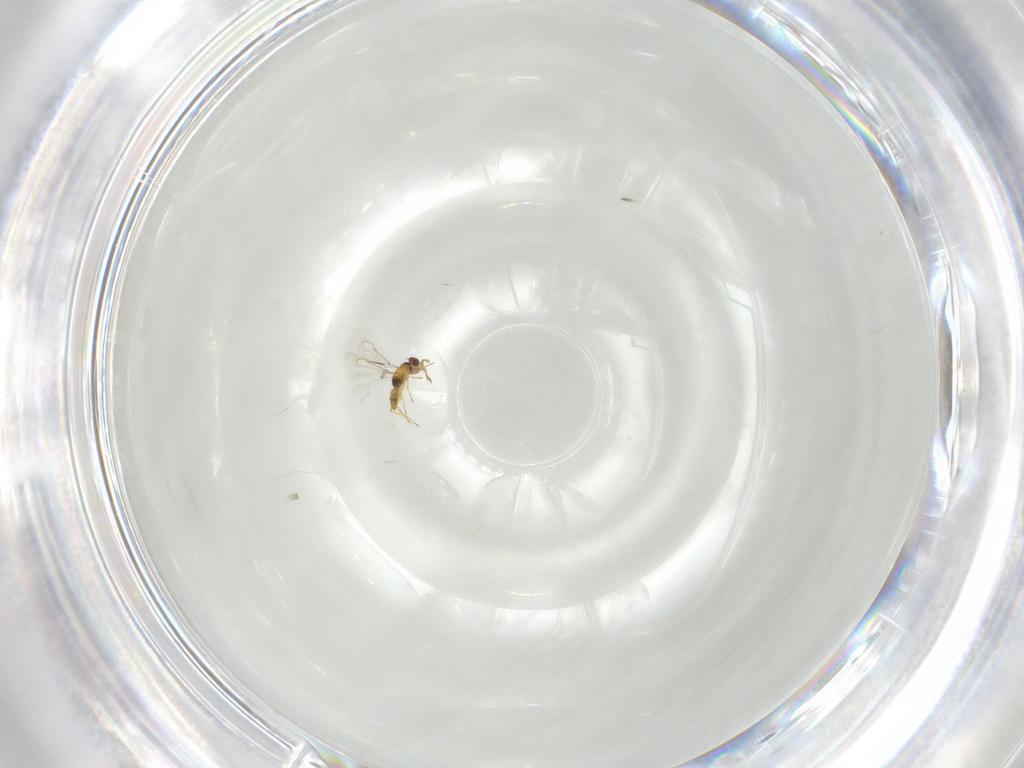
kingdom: Animalia
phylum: Arthropoda
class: Insecta
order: Hymenoptera
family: Eulophidae
